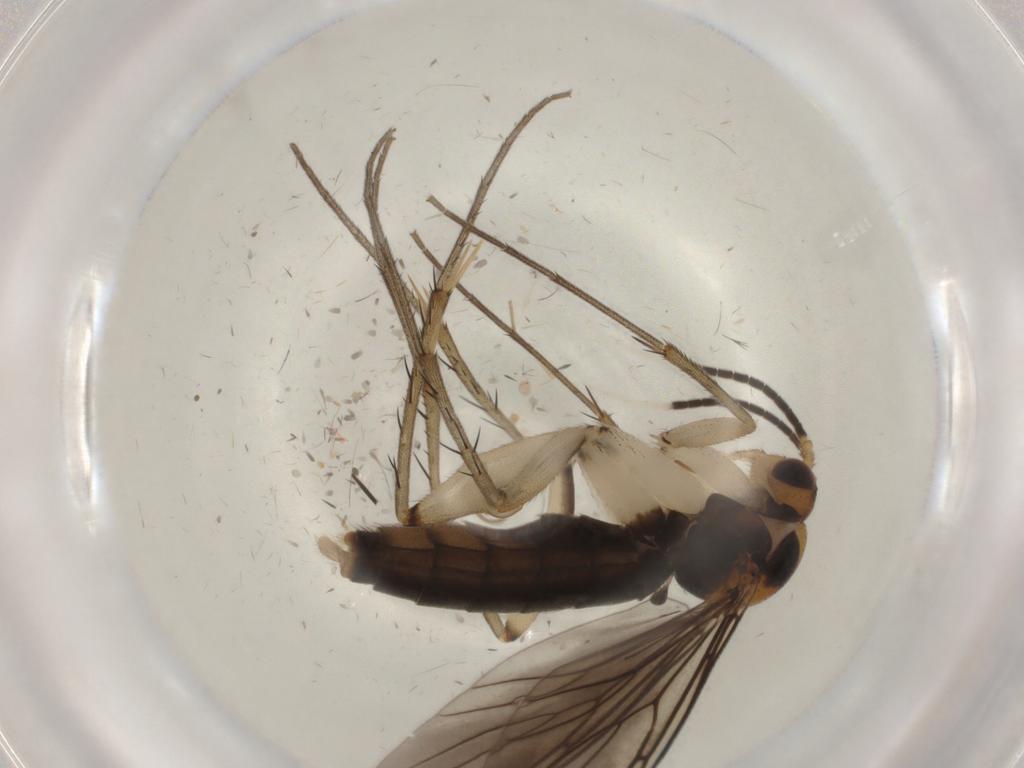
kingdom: Animalia
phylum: Arthropoda
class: Insecta
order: Diptera
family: Mycetophilidae
